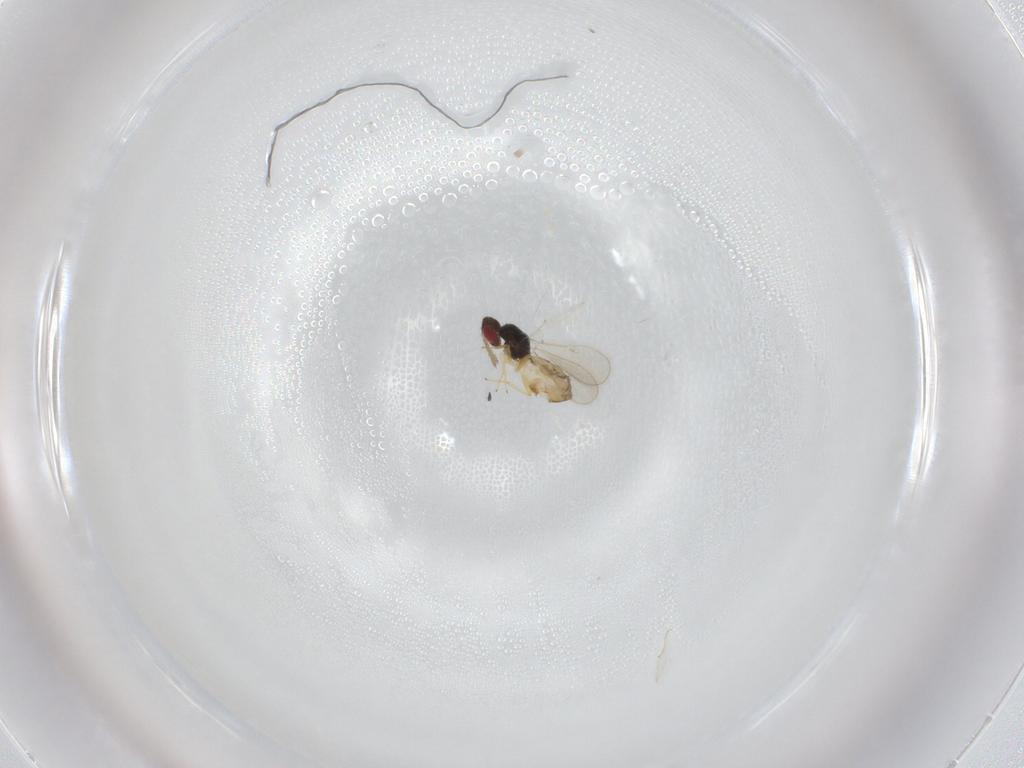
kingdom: Animalia
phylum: Arthropoda
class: Insecta
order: Hymenoptera
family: Eulophidae
